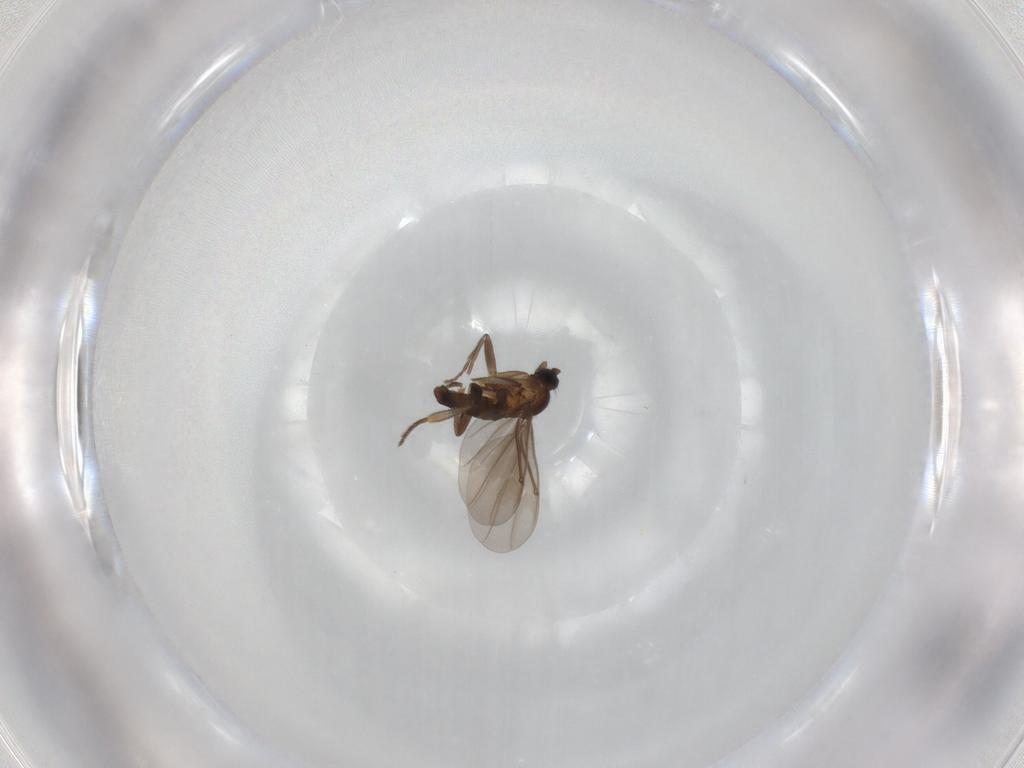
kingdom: Animalia
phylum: Arthropoda
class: Insecta
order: Diptera
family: Phoridae
